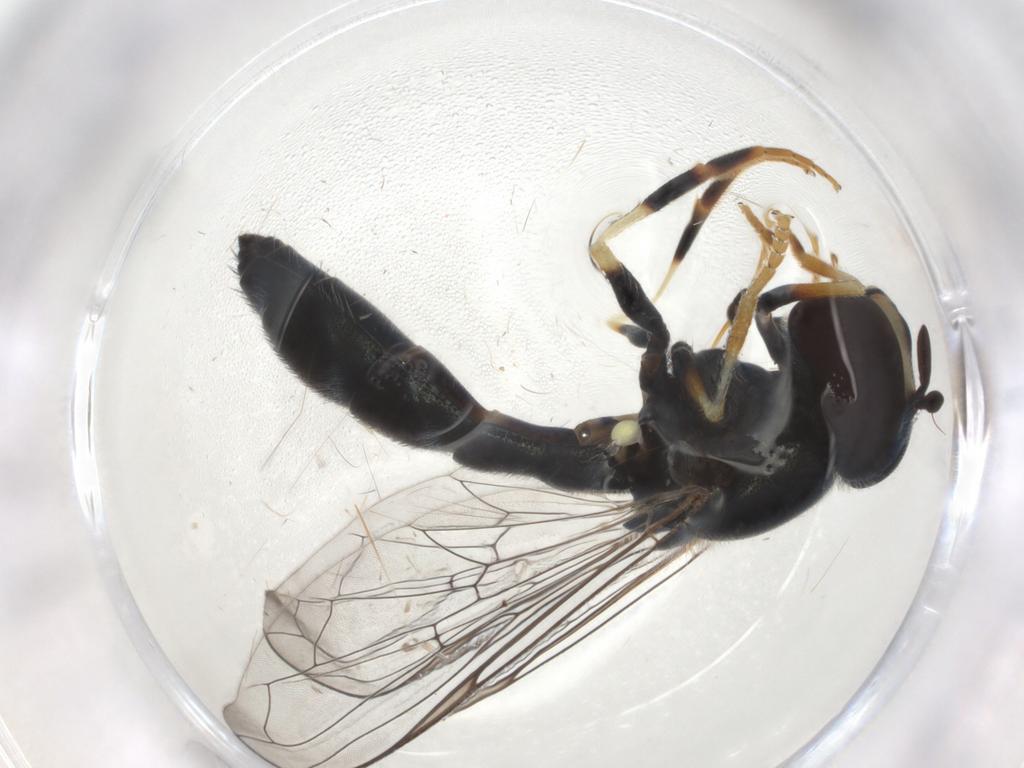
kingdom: Animalia
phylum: Arthropoda
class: Insecta
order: Diptera
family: Syrphidae
